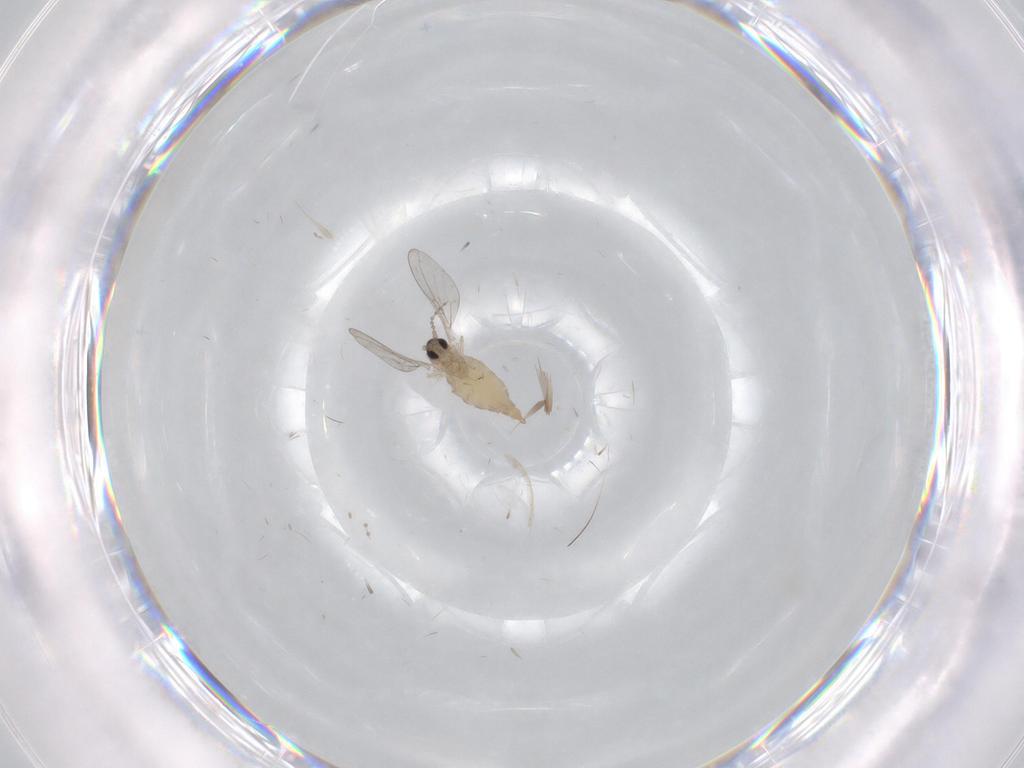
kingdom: Animalia
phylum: Arthropoda
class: Insecta
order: Diptera
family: Cecidomyiidae
